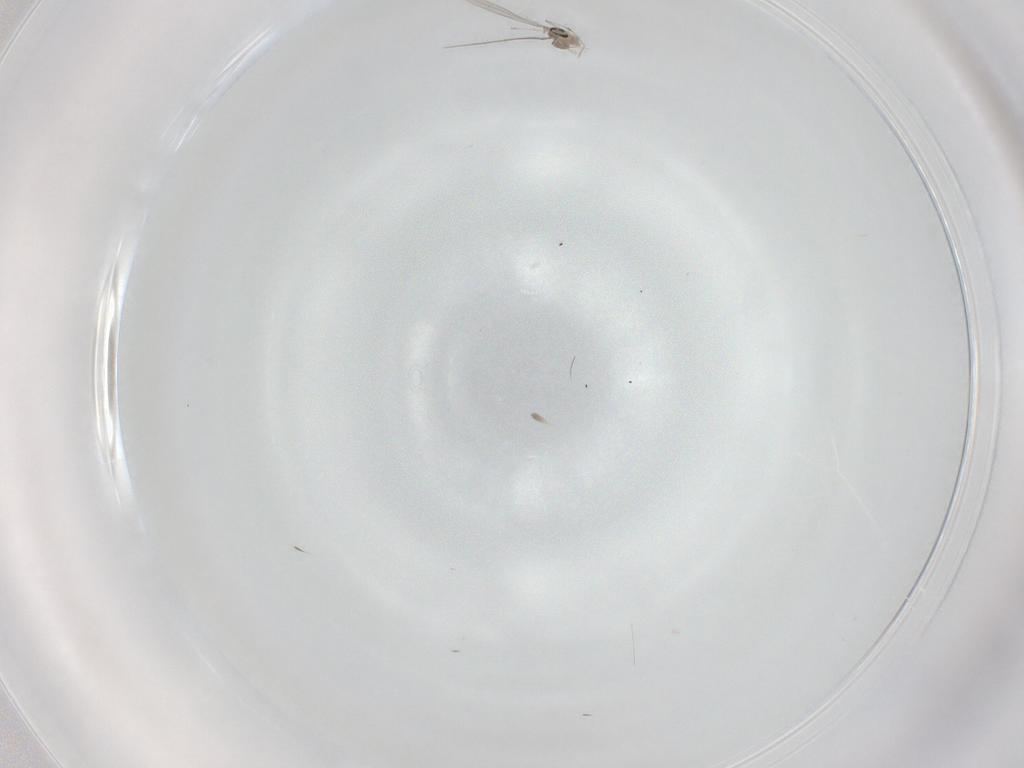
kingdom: Animalia
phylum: Arthropoda
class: Insecta
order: Diptera
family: Cecidomyiidae
